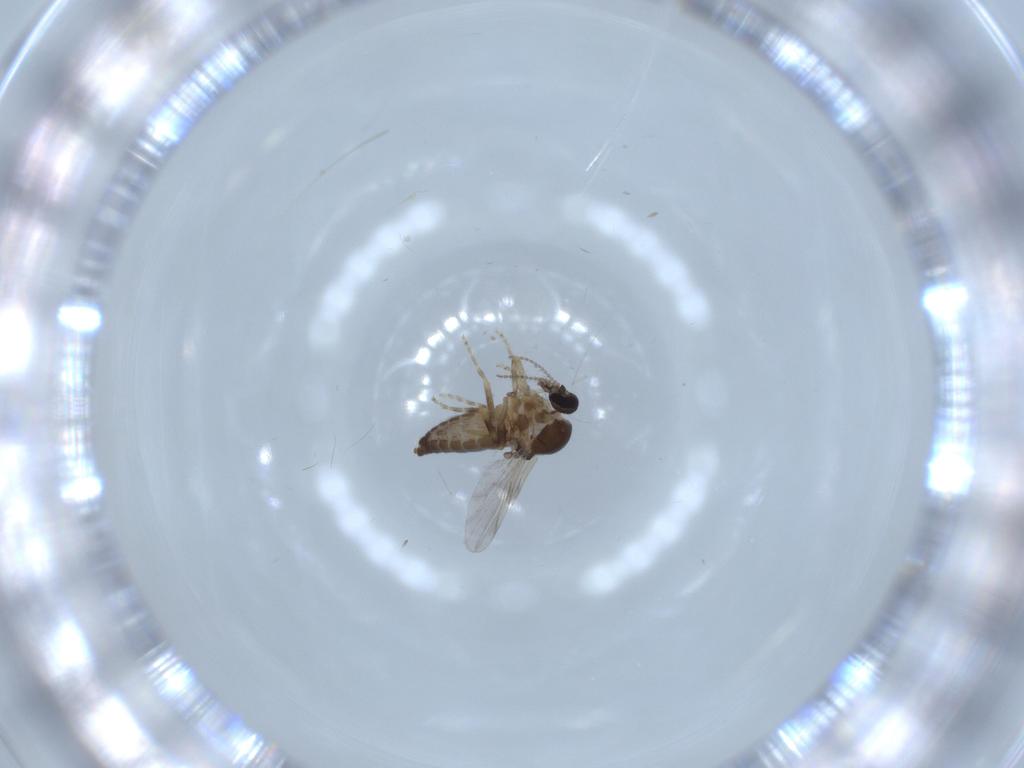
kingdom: Animalia
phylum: Arthropoda
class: Insecta
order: Diptera
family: Ceratopogonidae
